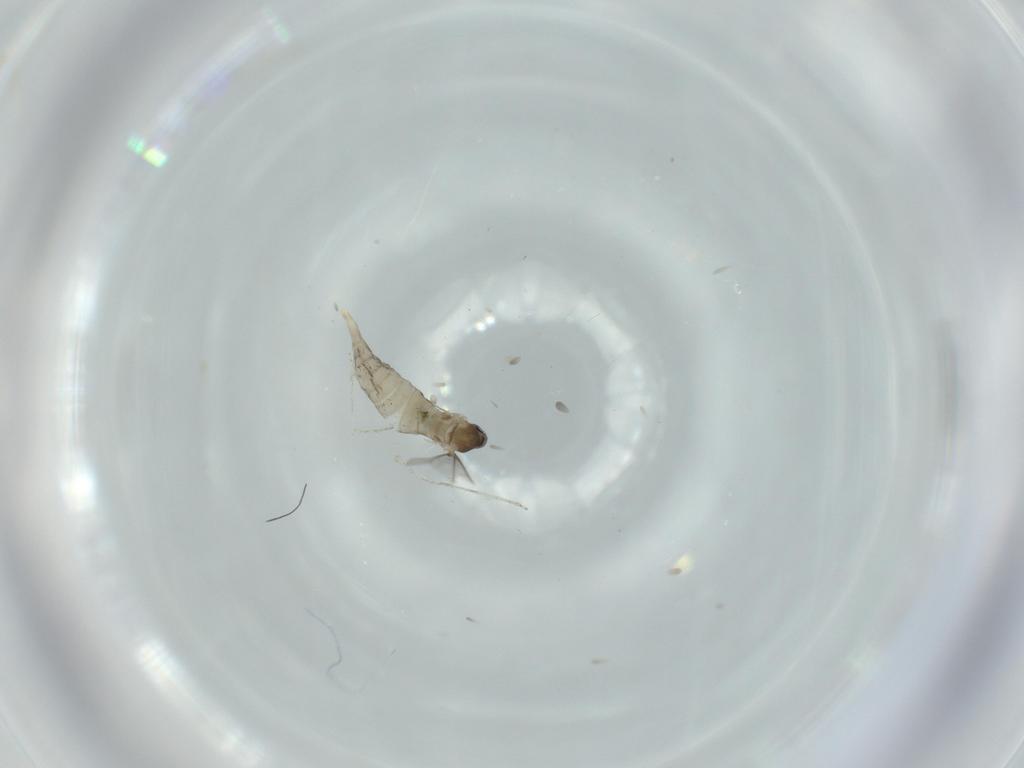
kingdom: Animalia
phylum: Arthropoda
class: Insecta
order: Diptera
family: Cecidomyiidae
